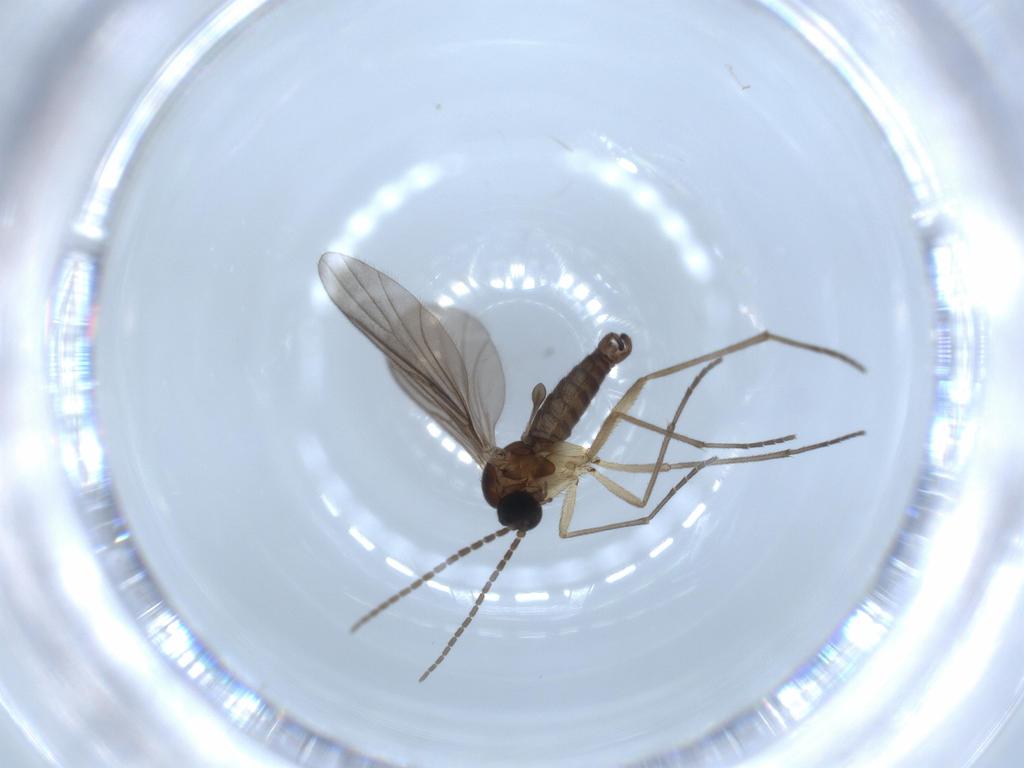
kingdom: Animalia
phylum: Arthropoda
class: Insecta
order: Diptera
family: Sciaridae
